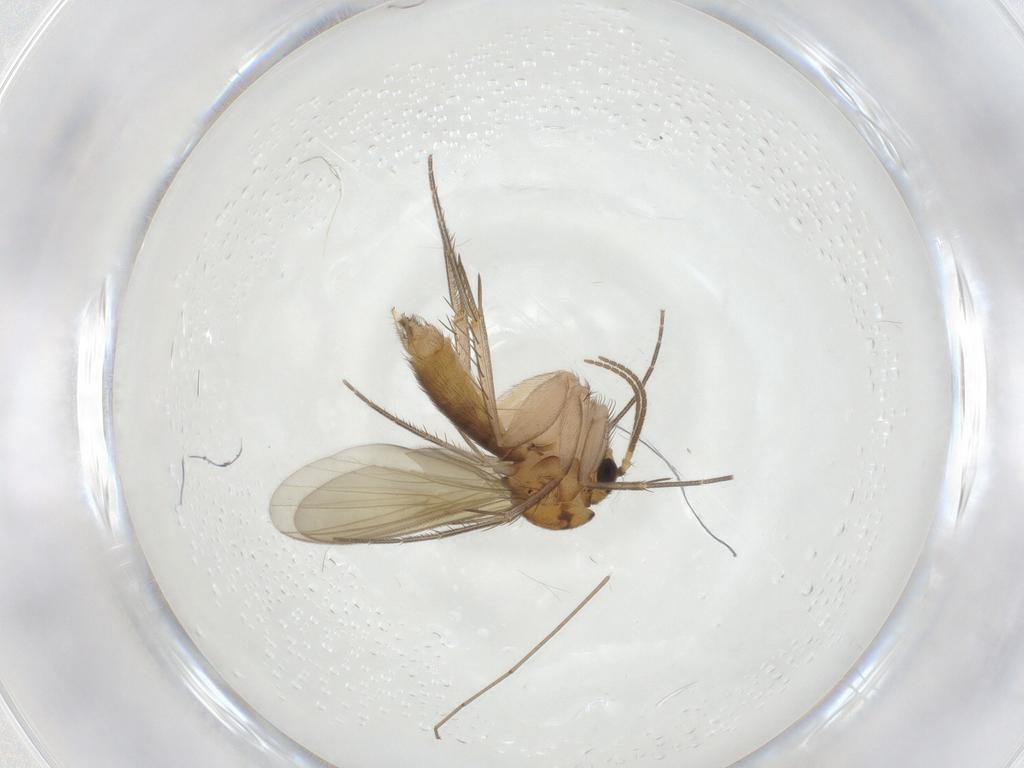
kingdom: Animalia
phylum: Arthropoda
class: Insecta
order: Diptera
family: Mycetophilidae
